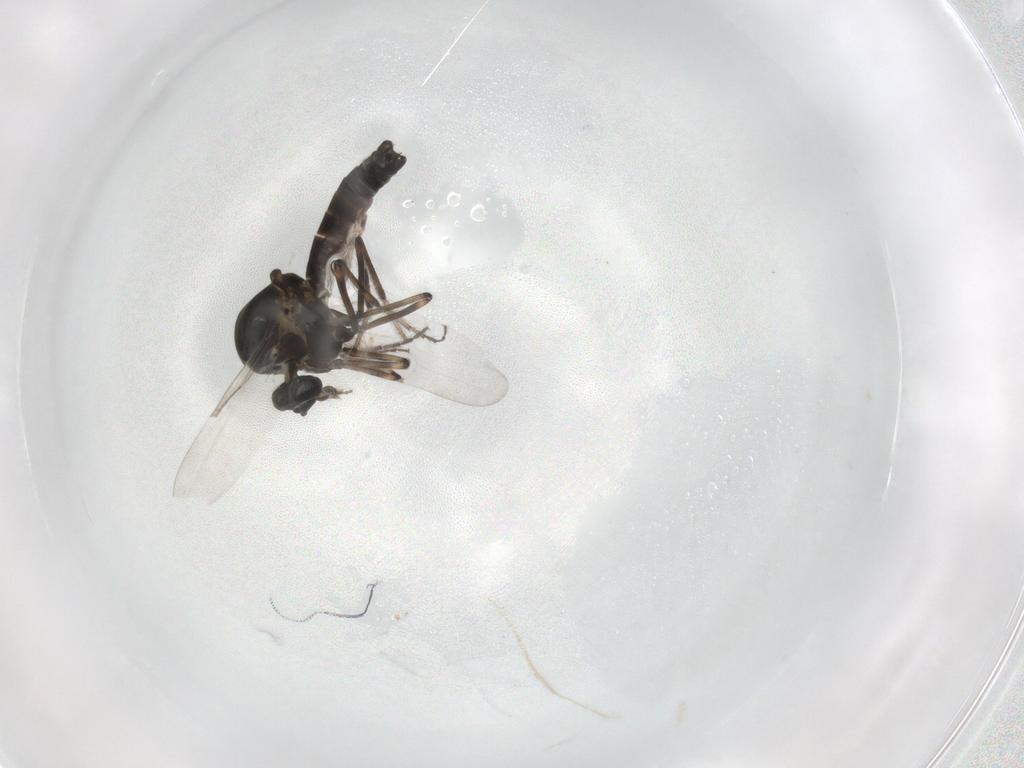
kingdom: Animalia
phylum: Arthropoda
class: Insecta
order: Diptera
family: Ceratopogonidae
